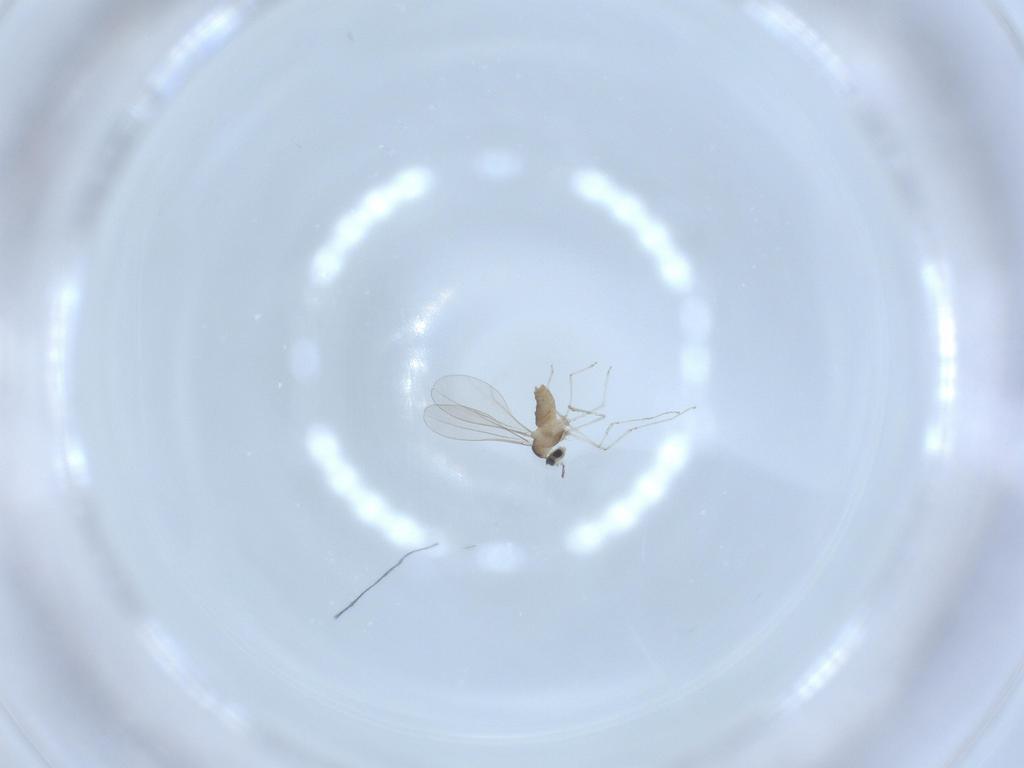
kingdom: Animalia
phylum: Arthropoda
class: Insecta
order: Diptera
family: Cecidomyiidae
